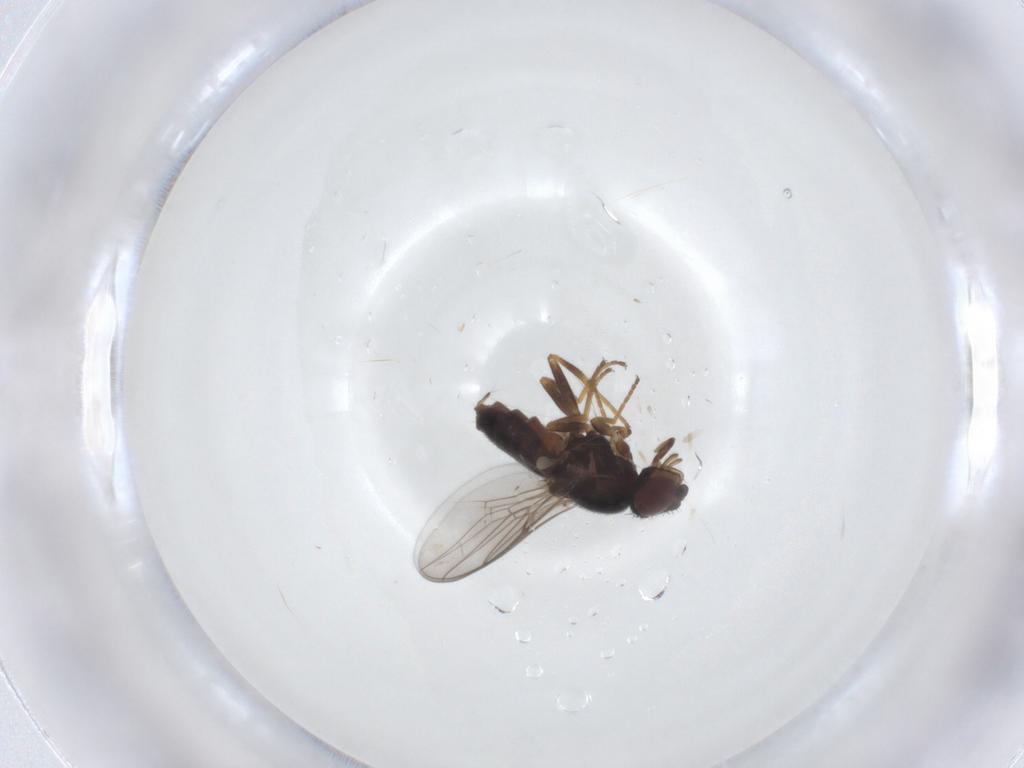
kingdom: Animalia
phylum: Arthropoda
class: Insecta
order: Diptera
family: Chloropidae
